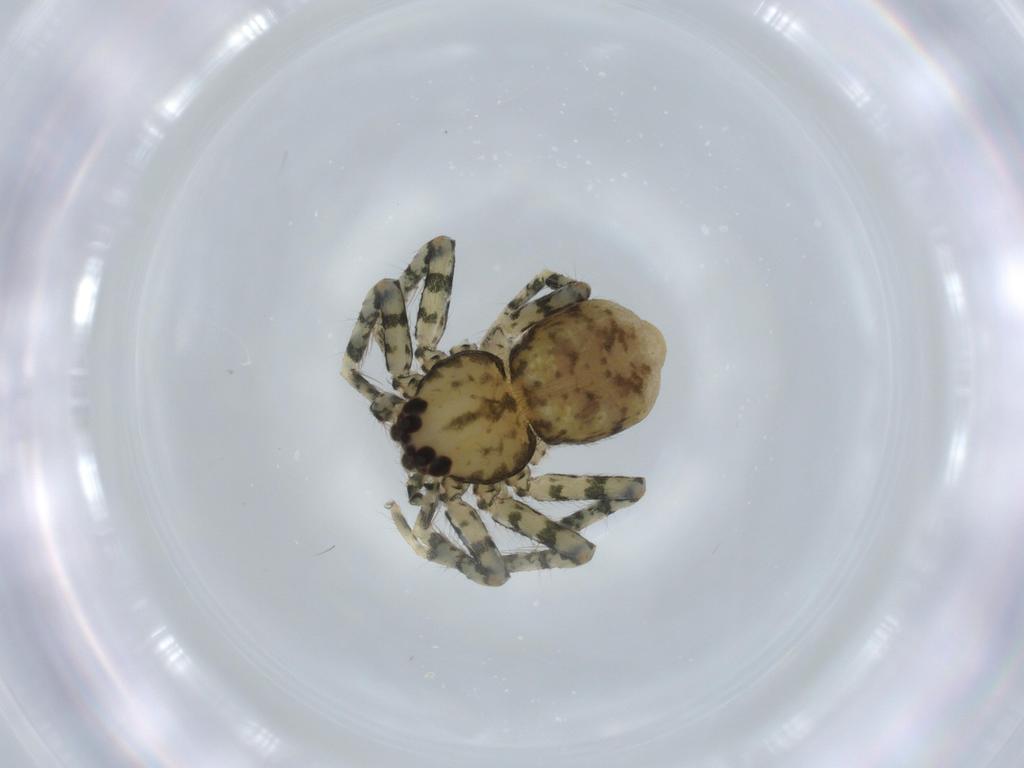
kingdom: Animalia
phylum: Arthropoda
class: Arachnida
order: Araneae
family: Selenopidae
